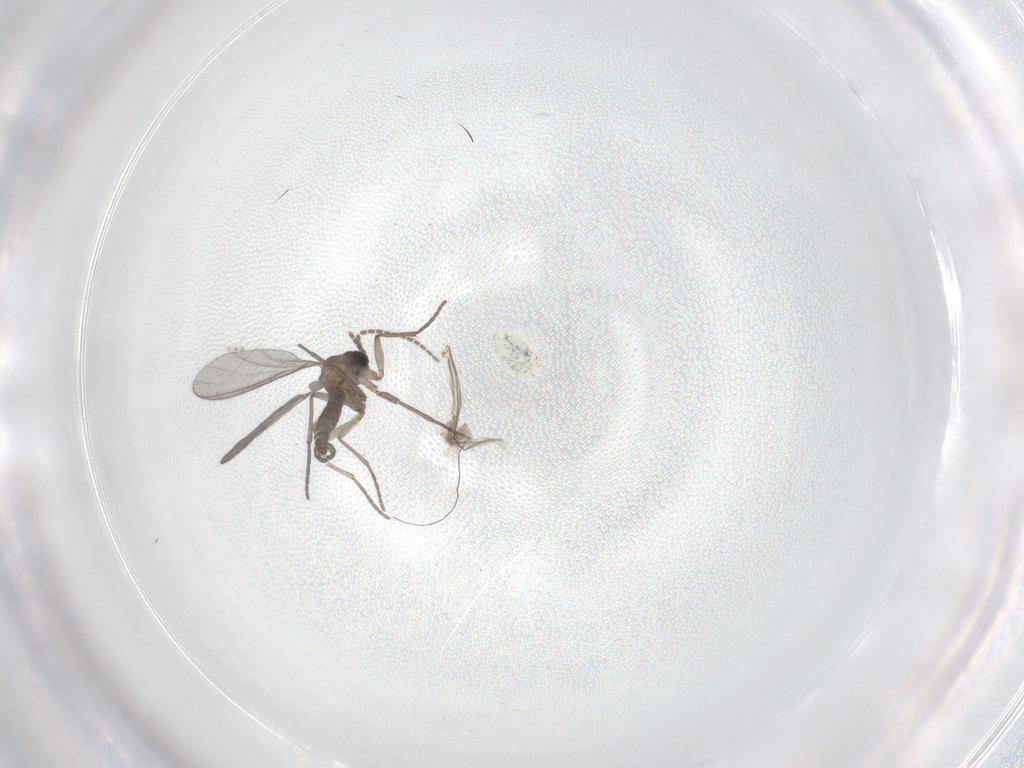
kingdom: Animalia
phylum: Arthropoda
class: Insecta
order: Diptera
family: Sciaridae
